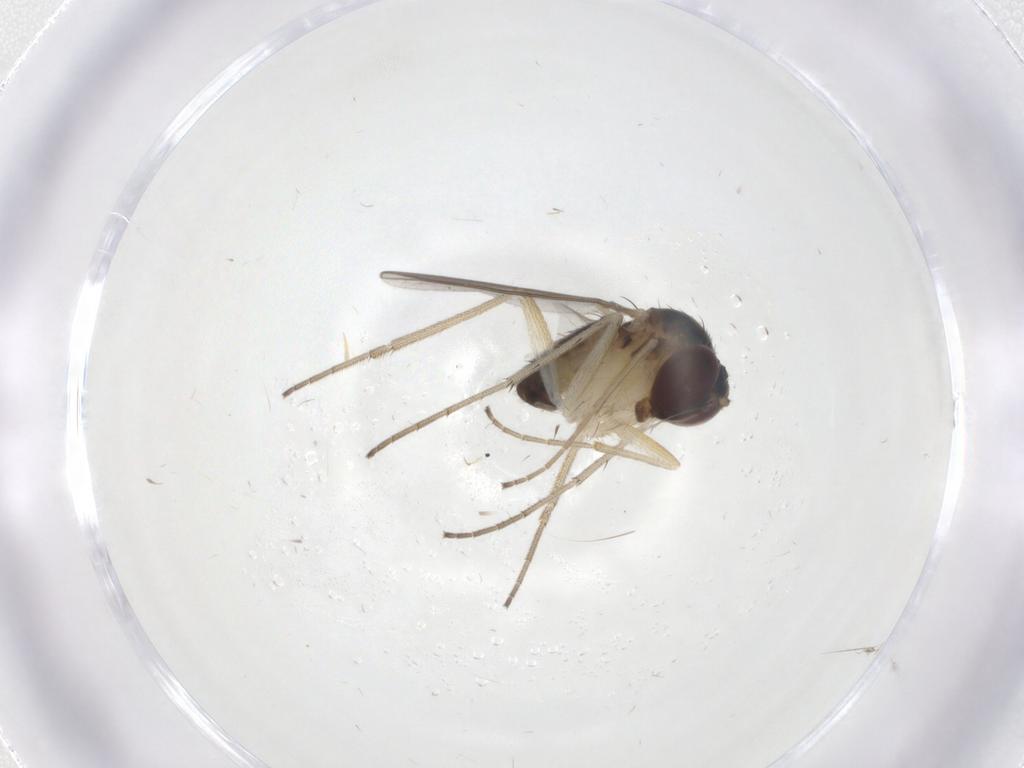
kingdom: Animalia
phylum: Arthropoda
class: Insecta
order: Diptera
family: Dolichopodidae
